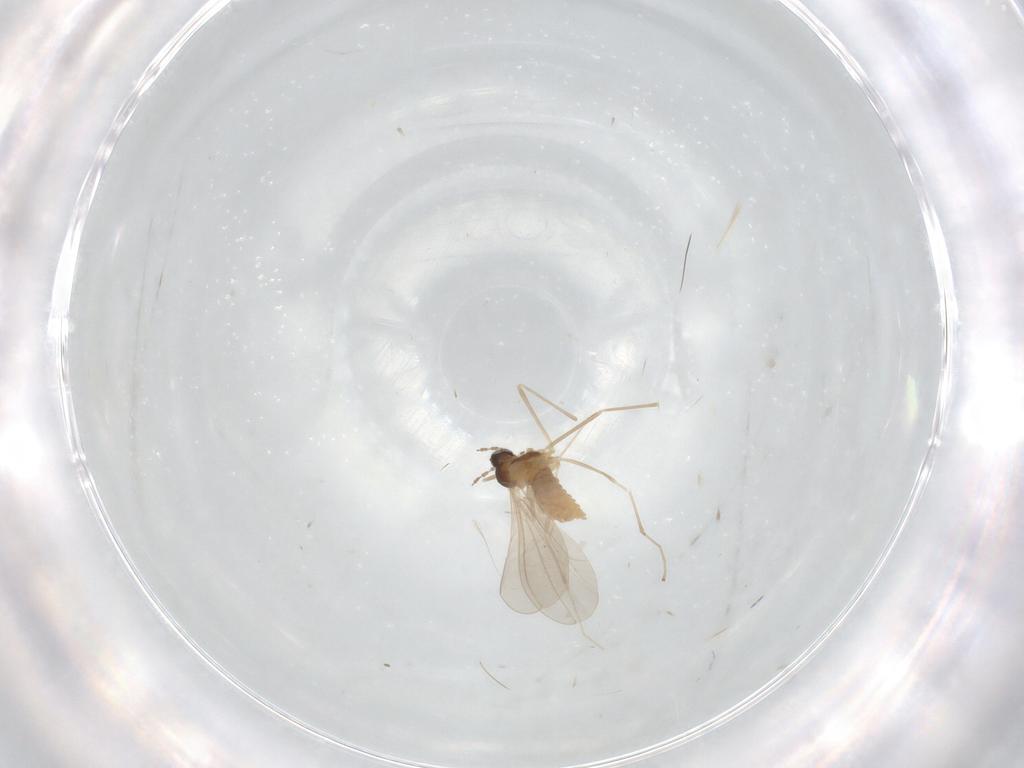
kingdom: Animalia
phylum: Arthropoda
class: Insecta
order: Diptera
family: Cecidomyiidae
